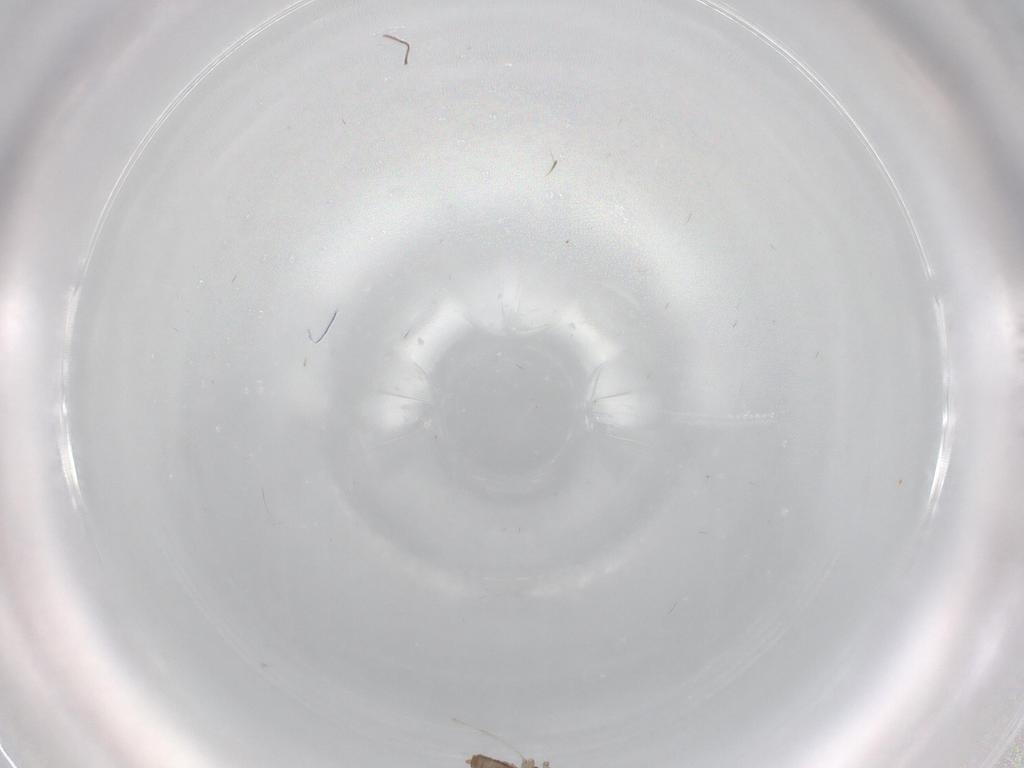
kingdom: Animalia
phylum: Arthropoda
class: Insecta
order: Diptera
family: Cecidomyiidae
